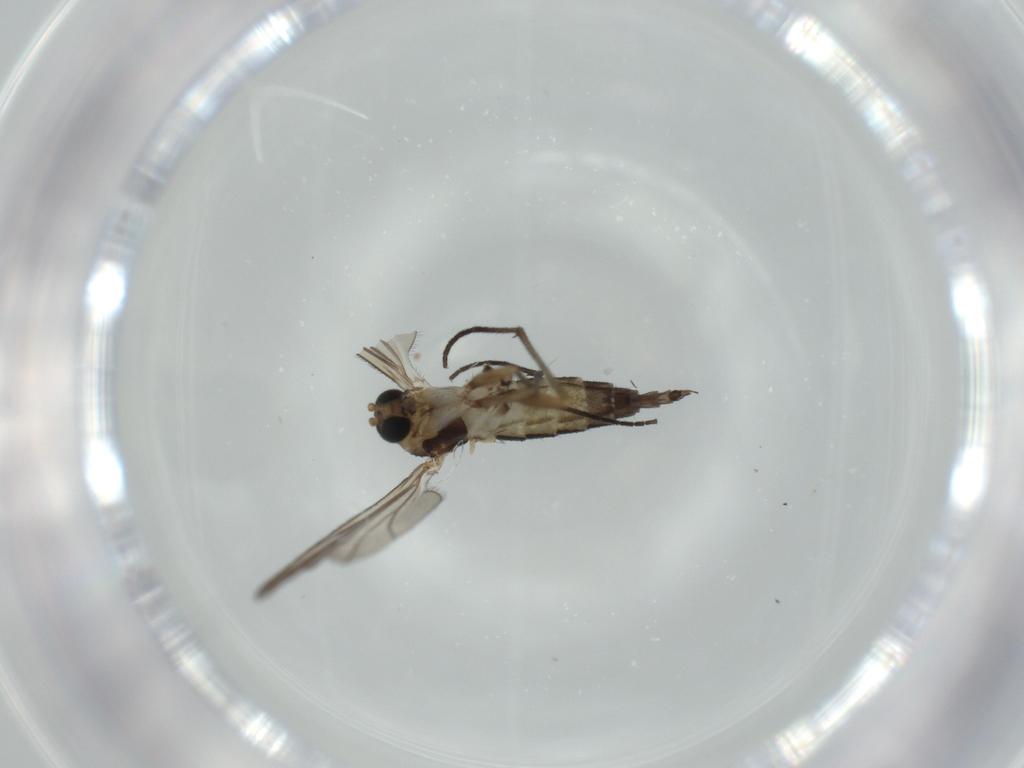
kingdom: Animalia
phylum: Arthropoda
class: Insecta
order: Diptera
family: Sciaridae
